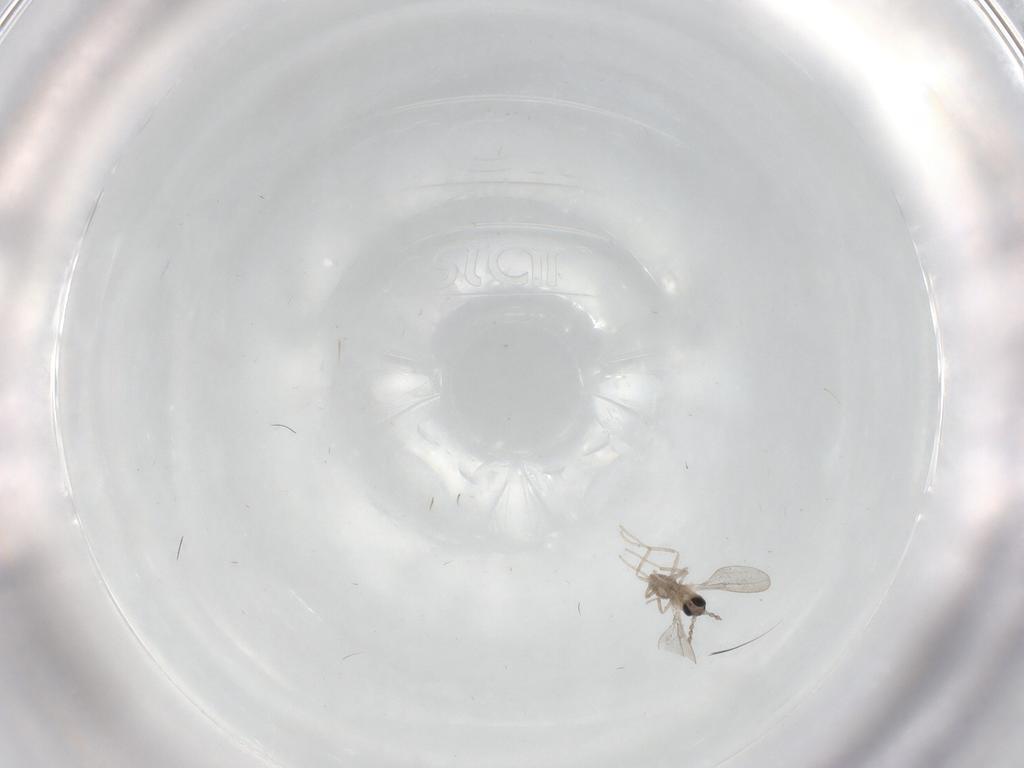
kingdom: Animalia
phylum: Arthropoda
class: Insecta
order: Diptera
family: Cecidomyiidae
